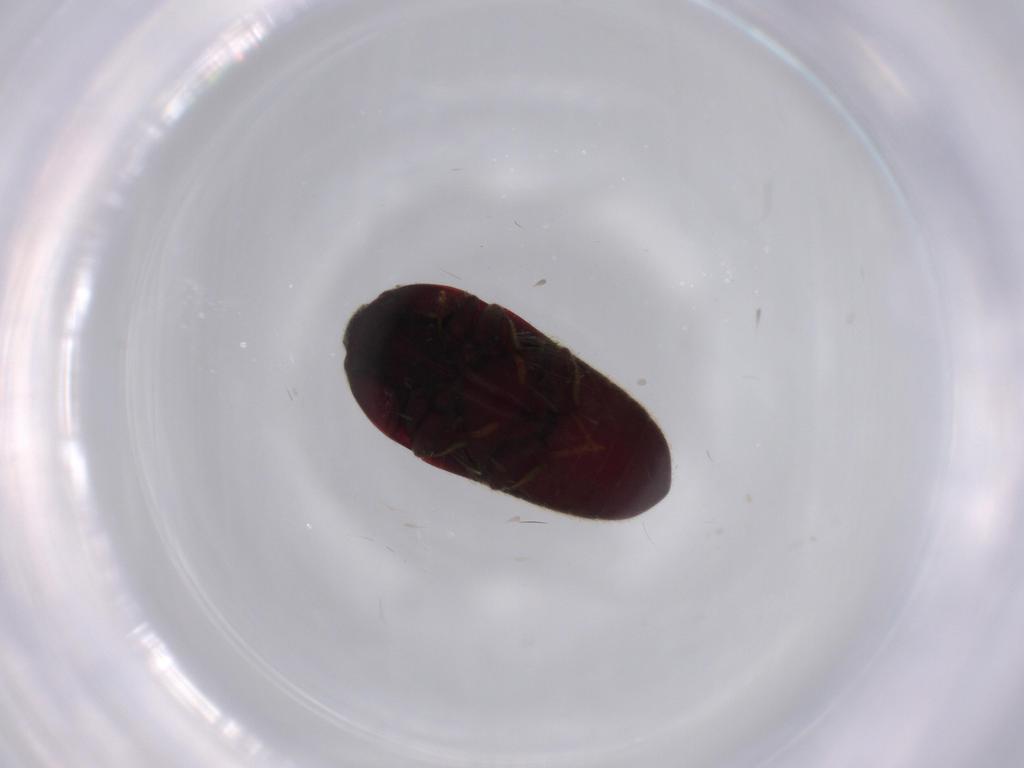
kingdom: Animalia
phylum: Arthropoda
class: Insecta
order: Coleoptera
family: Throscidae
